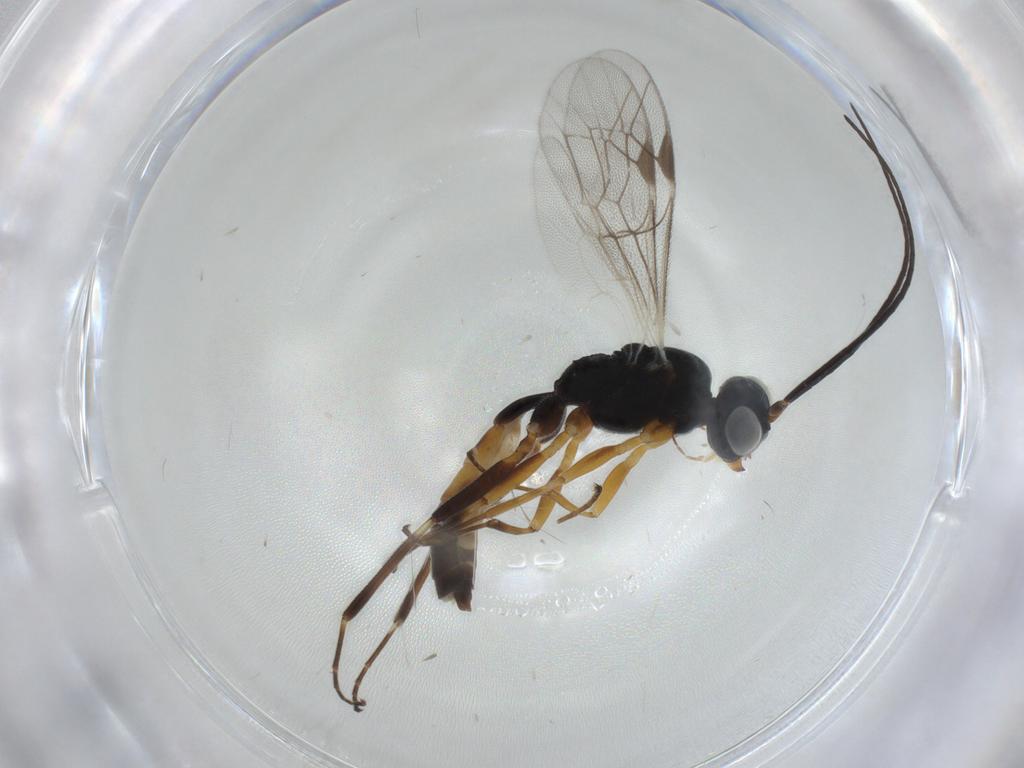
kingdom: Animalia
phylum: Arthropoda
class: Insecta
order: Hymenoptera
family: Ichneumonidae
